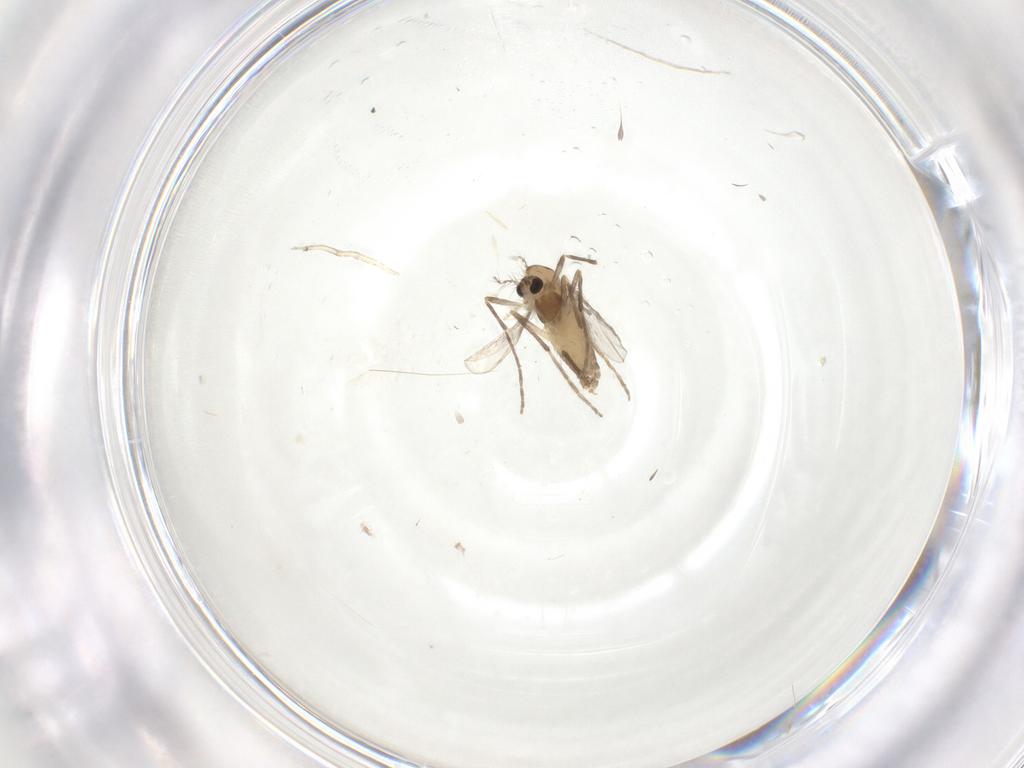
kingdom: Animalia
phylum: Arthropoda
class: Insecta
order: Diptera
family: Chironomidae
